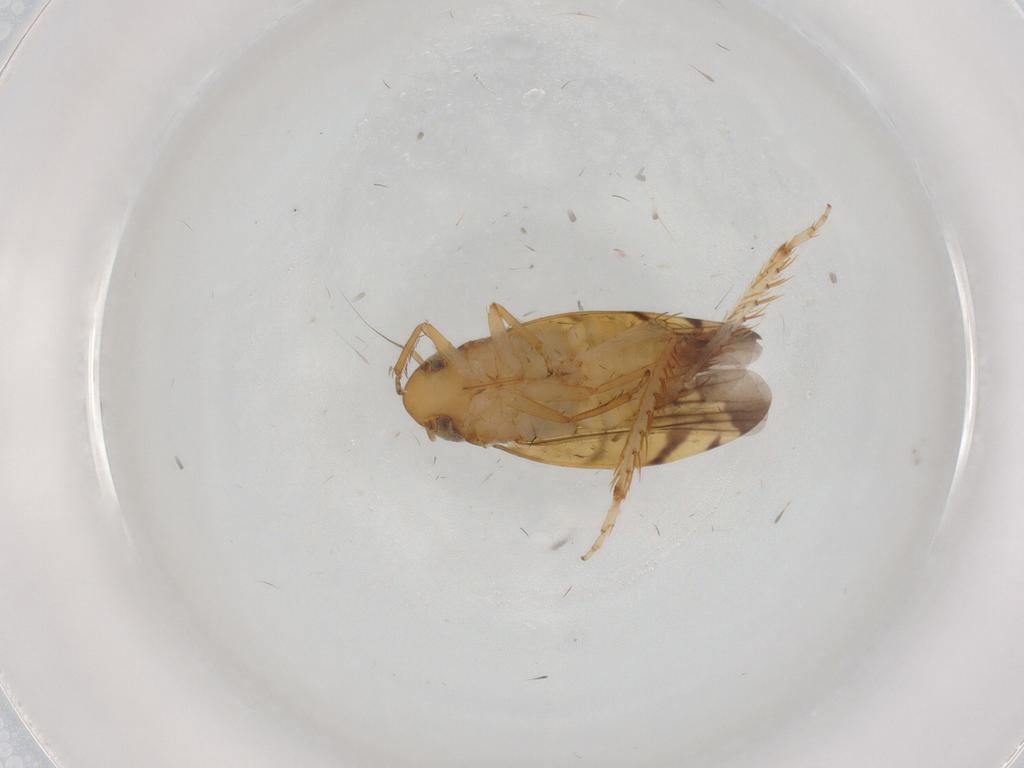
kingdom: Animalia
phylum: Arthropoda
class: Insecta
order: Hemiptera
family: Cicadellidae
